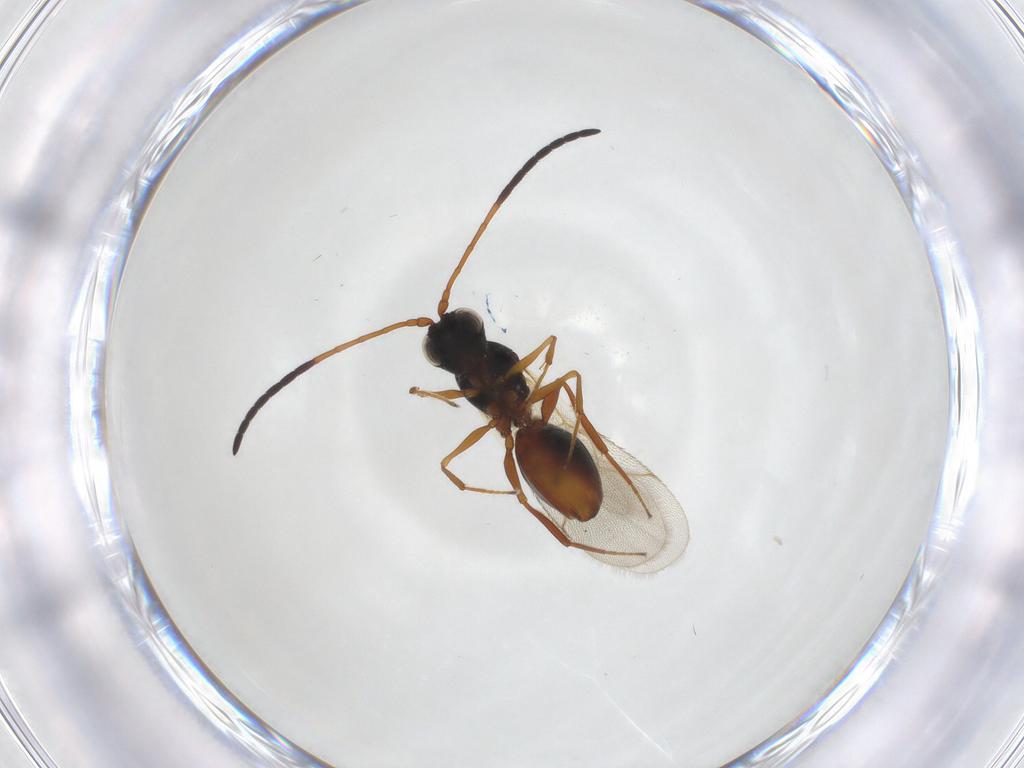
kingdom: Animalia
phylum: Arthropoda
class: Insecta
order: Hymenoptera
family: Figitidae
